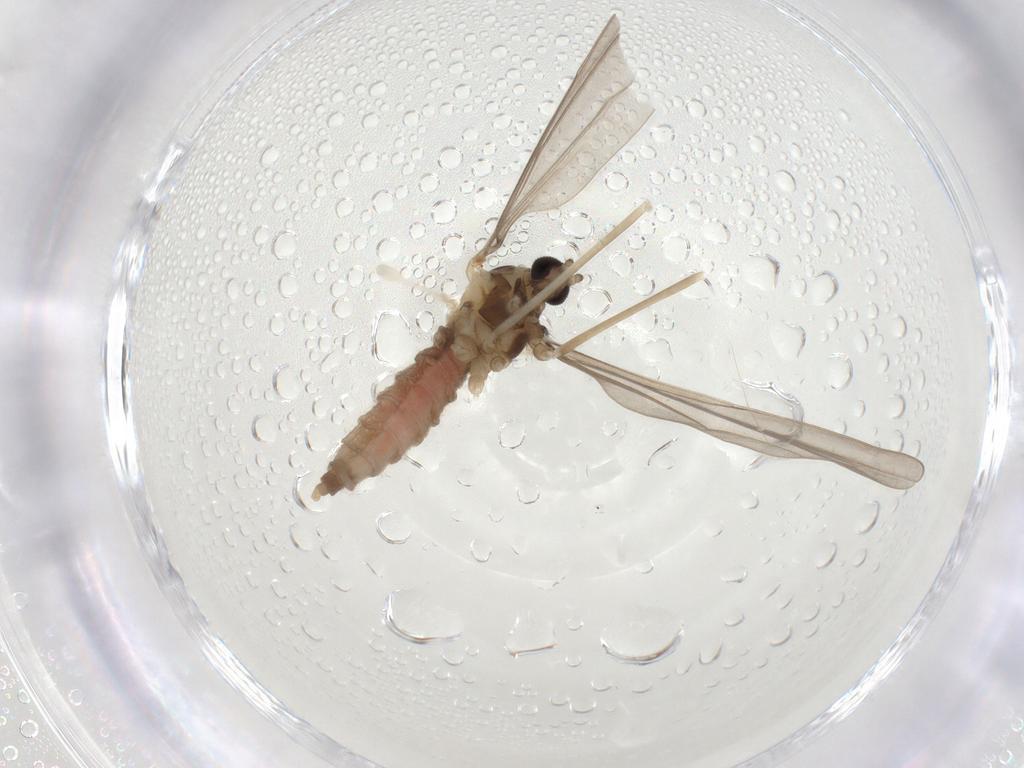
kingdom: Animalia
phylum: Arthropoda
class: Insecta
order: Diptera
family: Cecidomyiidae
